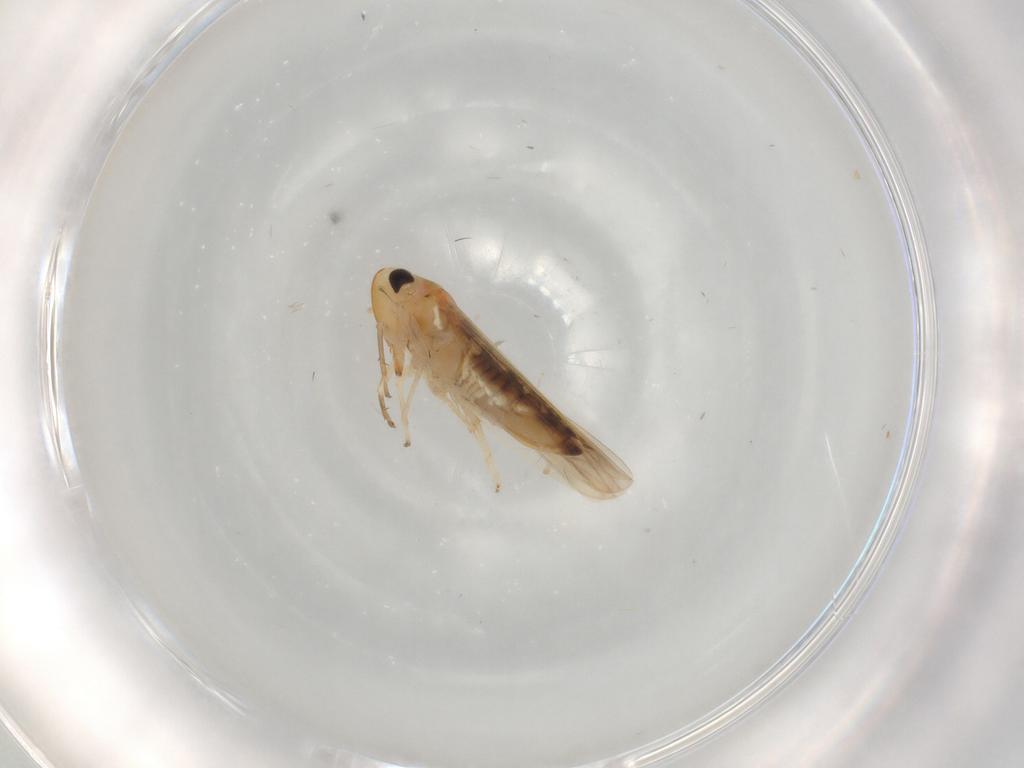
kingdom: Animalia
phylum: Arthropoda
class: Insecta
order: Hemiptera
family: Cicadellidae
